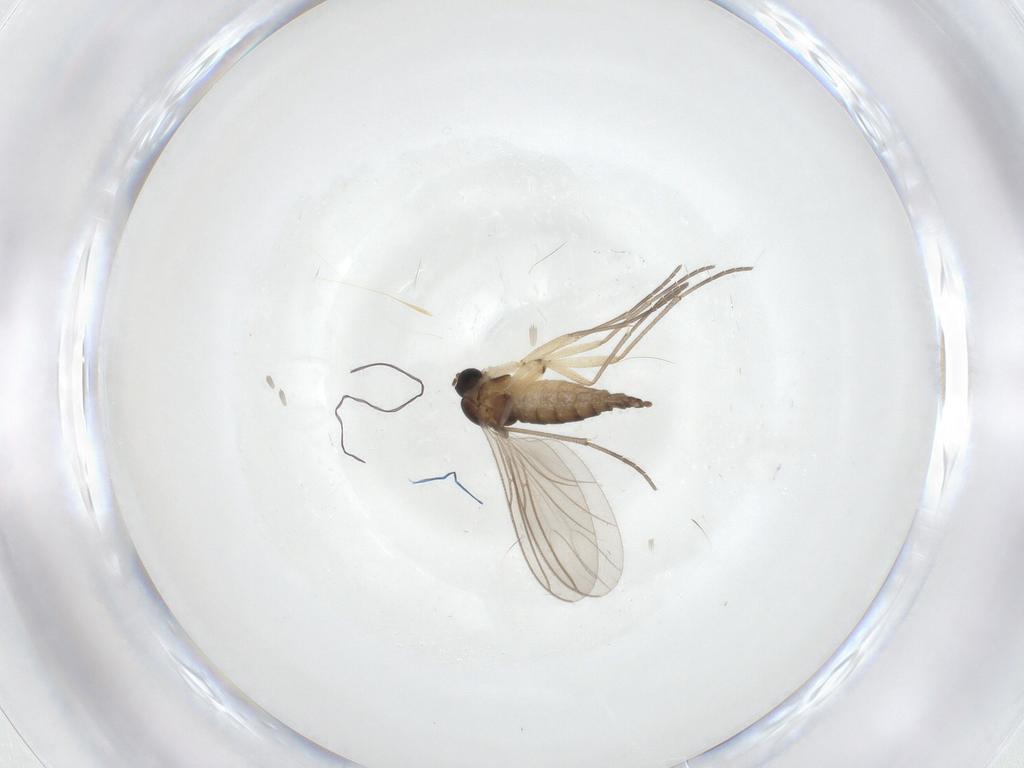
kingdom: Animalia
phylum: Arthropoda
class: Insecta
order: Diptera
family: Sciaridae
